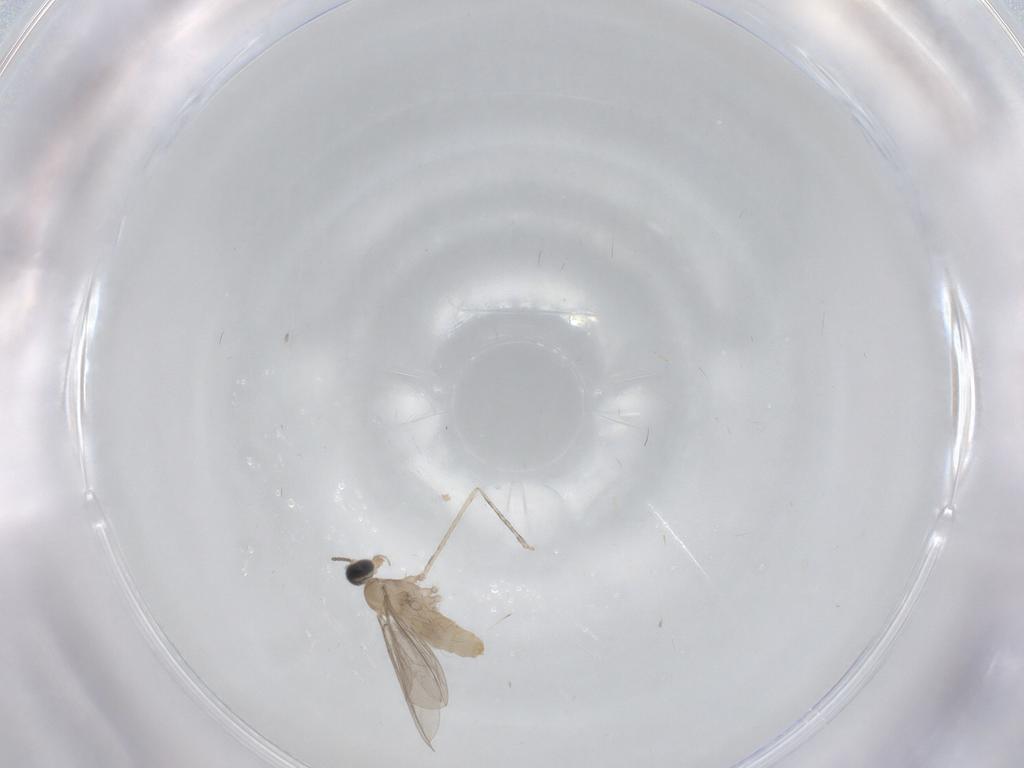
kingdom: Animalia
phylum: Arthropoda
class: Insecta
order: Diptera
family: Cecidomyiidae
